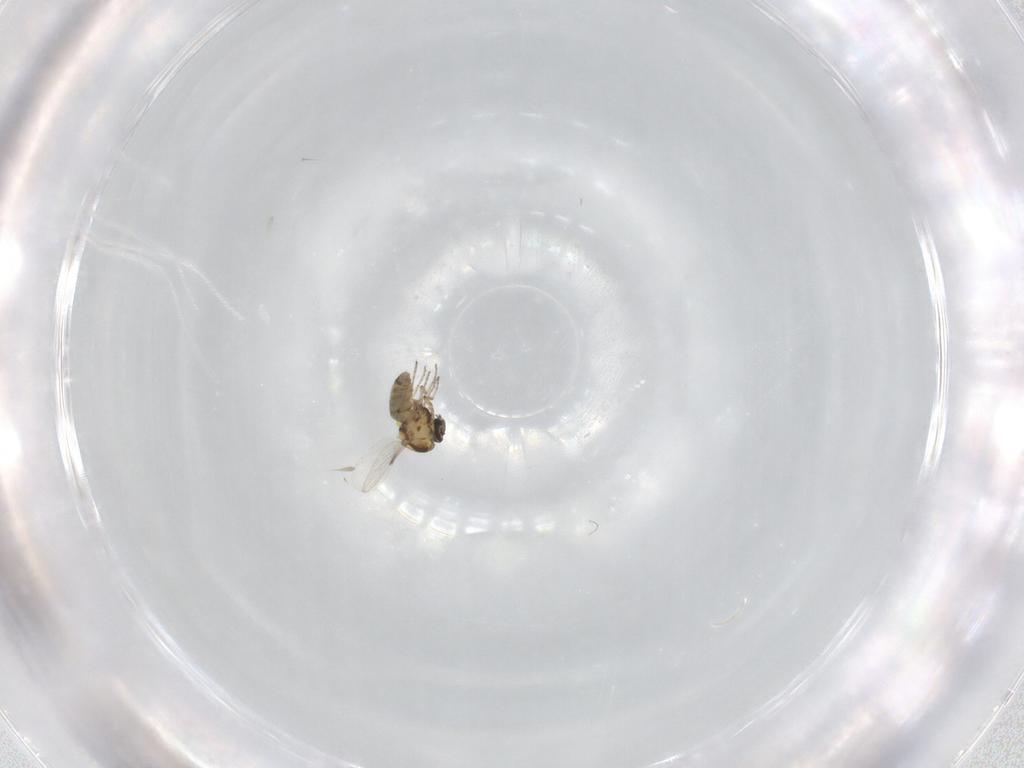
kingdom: Animalia
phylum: Arthropoda
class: Insecta
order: Diptera
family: Ceratopogonidae
